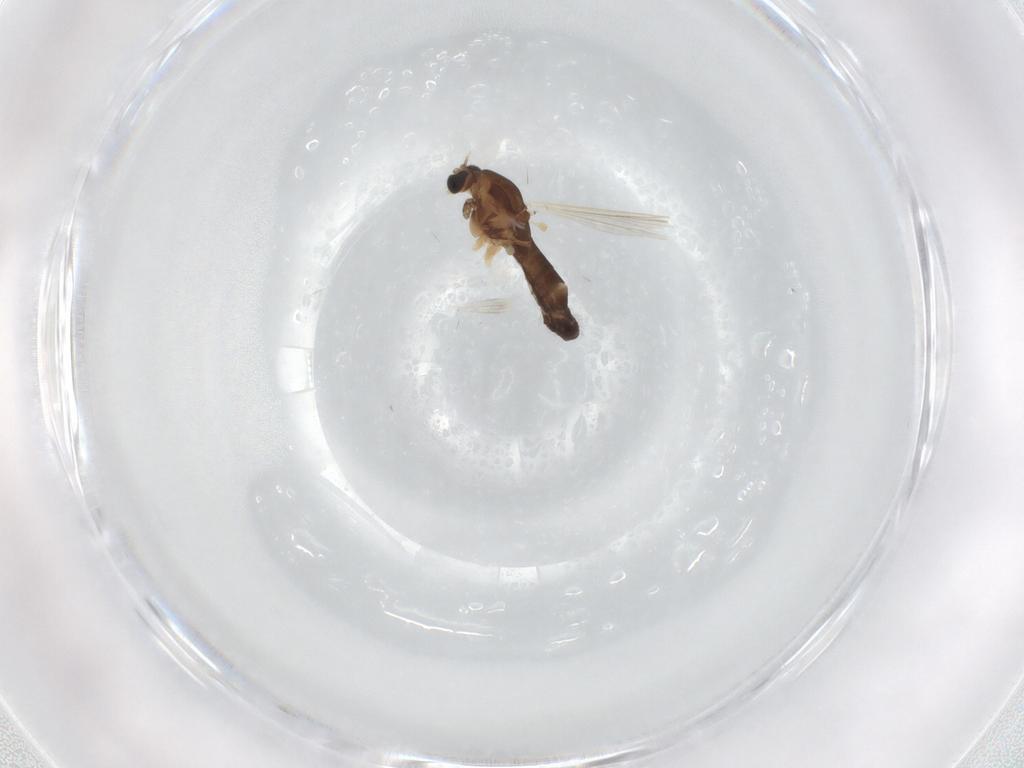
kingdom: Animalia
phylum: Arthropoda
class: Insecta
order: Diptera
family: Chironomidae
